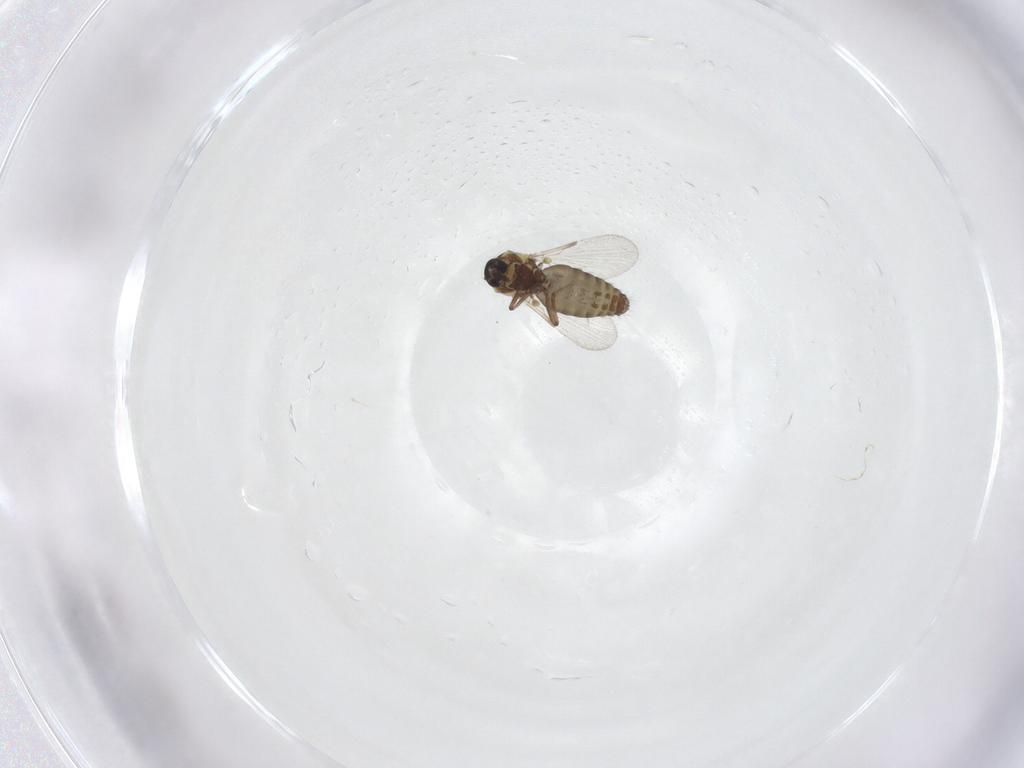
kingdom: Animalia
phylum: Arthropoda
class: Insecta
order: Diptera
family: Ceratopogonidae
